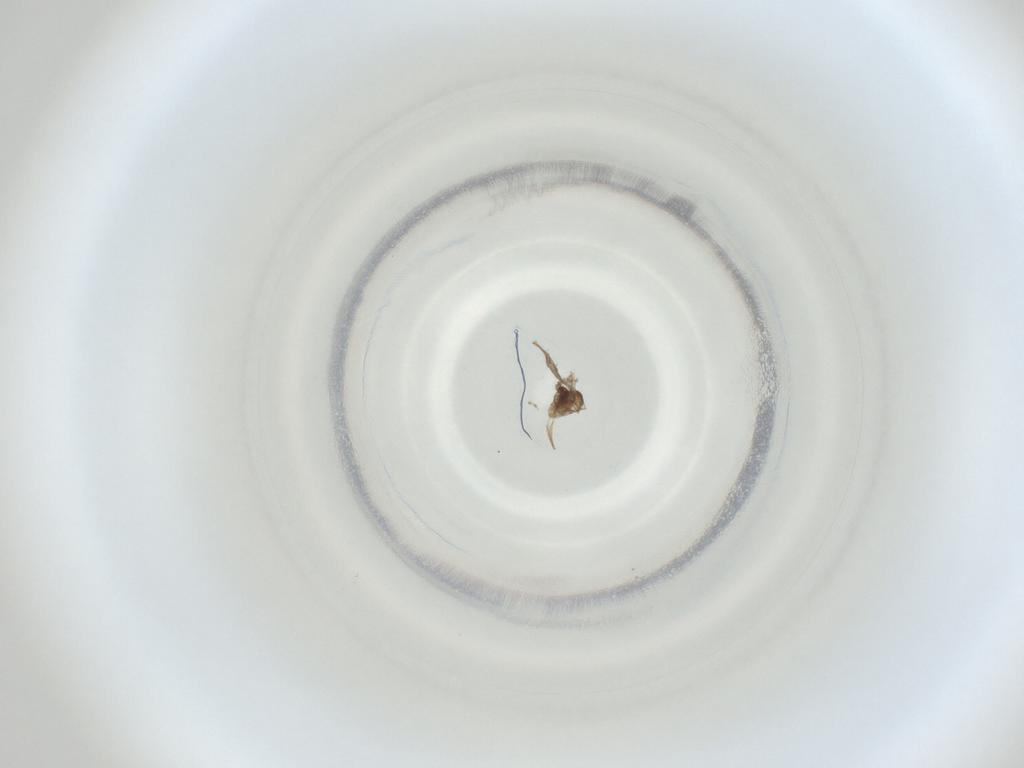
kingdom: Animalia
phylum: Arthropoda
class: Insecta
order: Diptera
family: Cecidomyiidae
